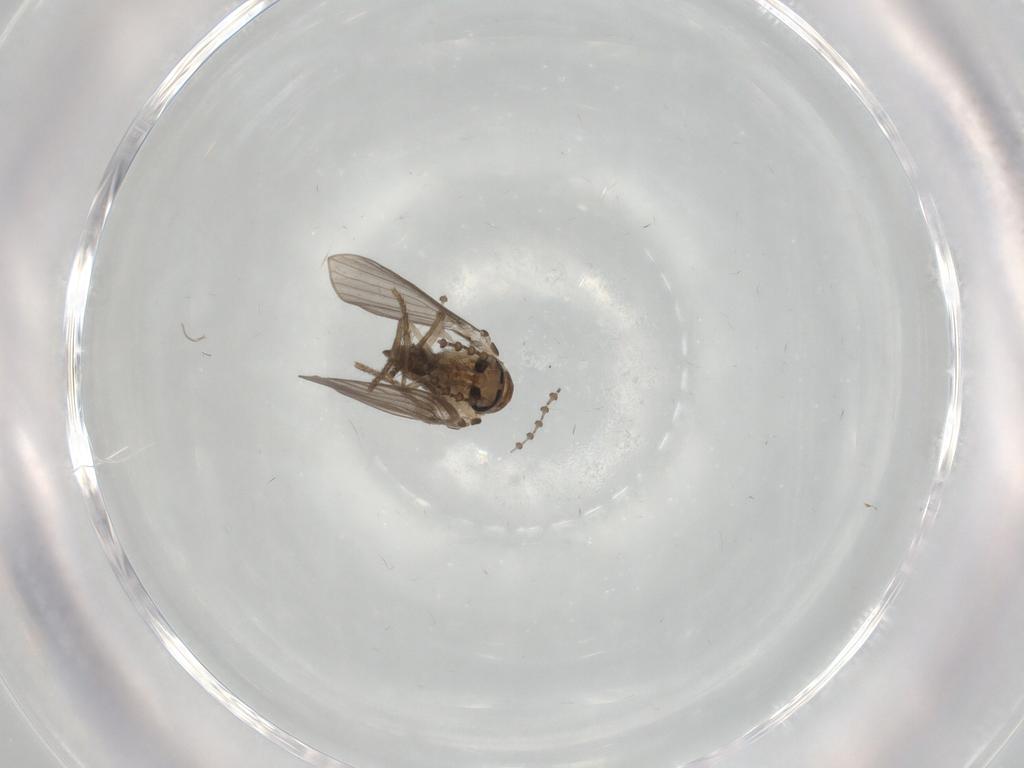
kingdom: Animalia
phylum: Arthropoda
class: Insecta
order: Diptera
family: Psychodidae
